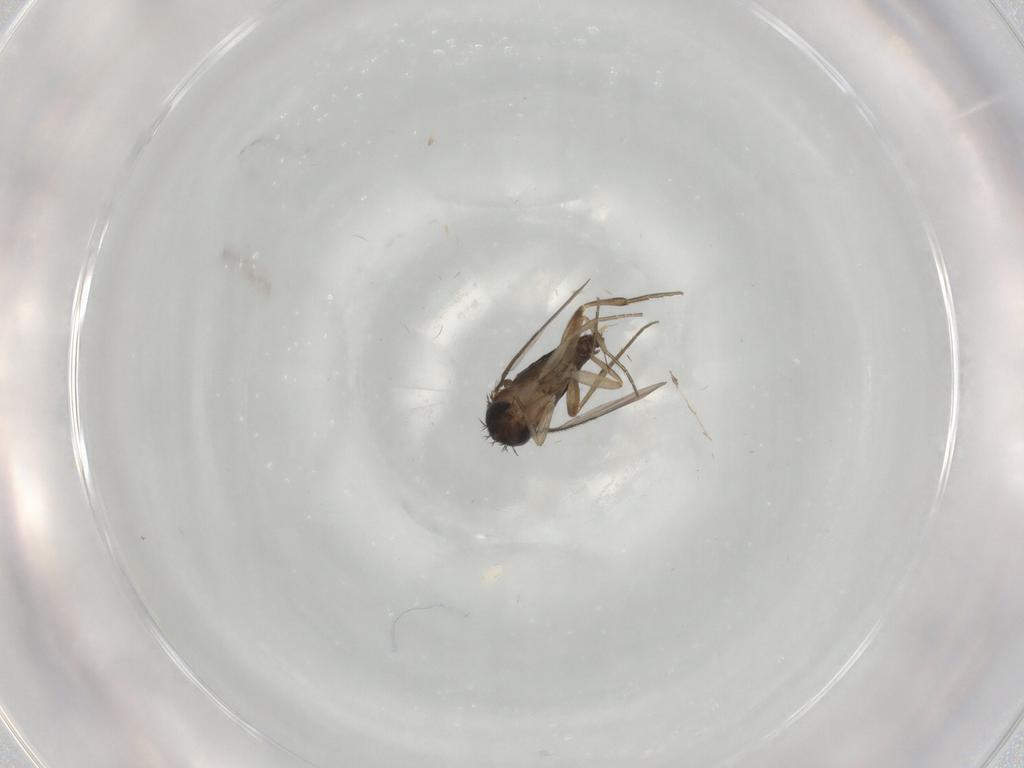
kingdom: Animalia
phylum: Arthropoda
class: Insecta
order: Diptera
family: Phoridae
